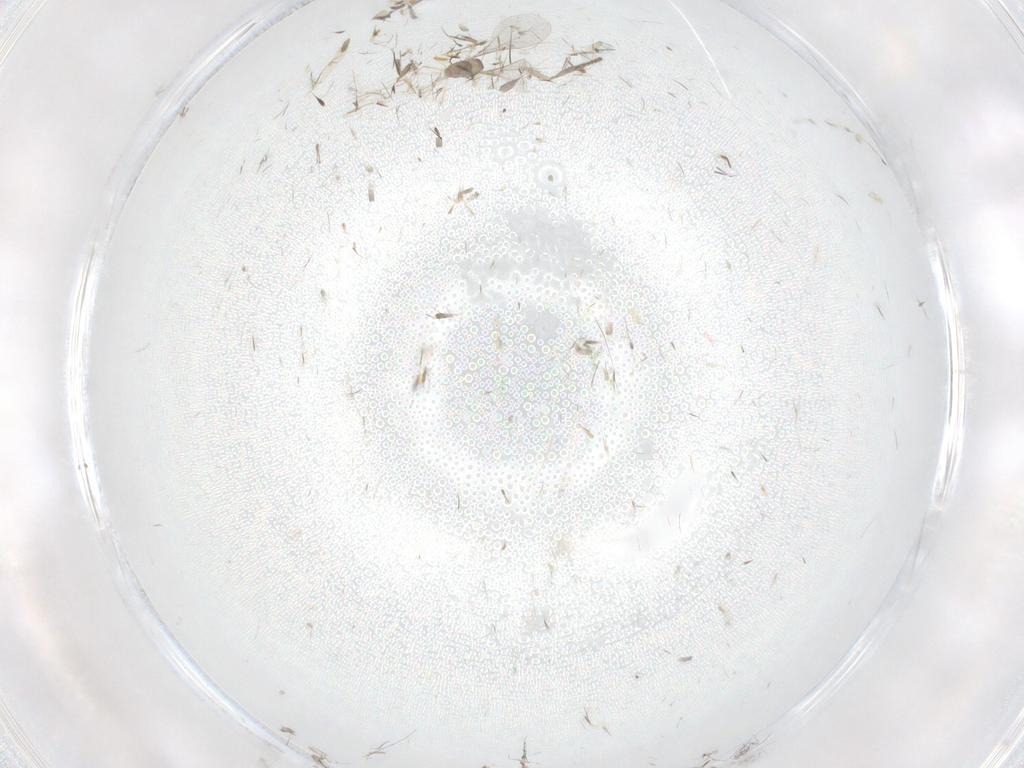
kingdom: Animalia
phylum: Arthropoda
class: Insecta
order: Diptera
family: Cecidomyiidae
